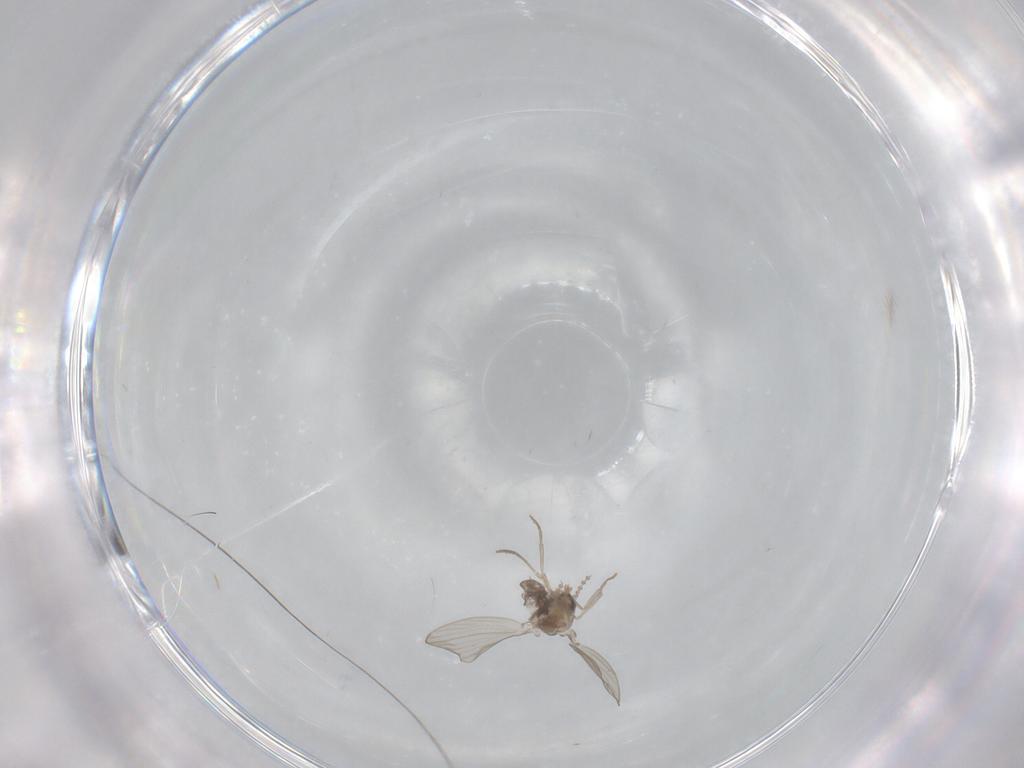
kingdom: Animalia
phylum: Arthropoda
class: Insecta
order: Diptera
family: Psychodidae
